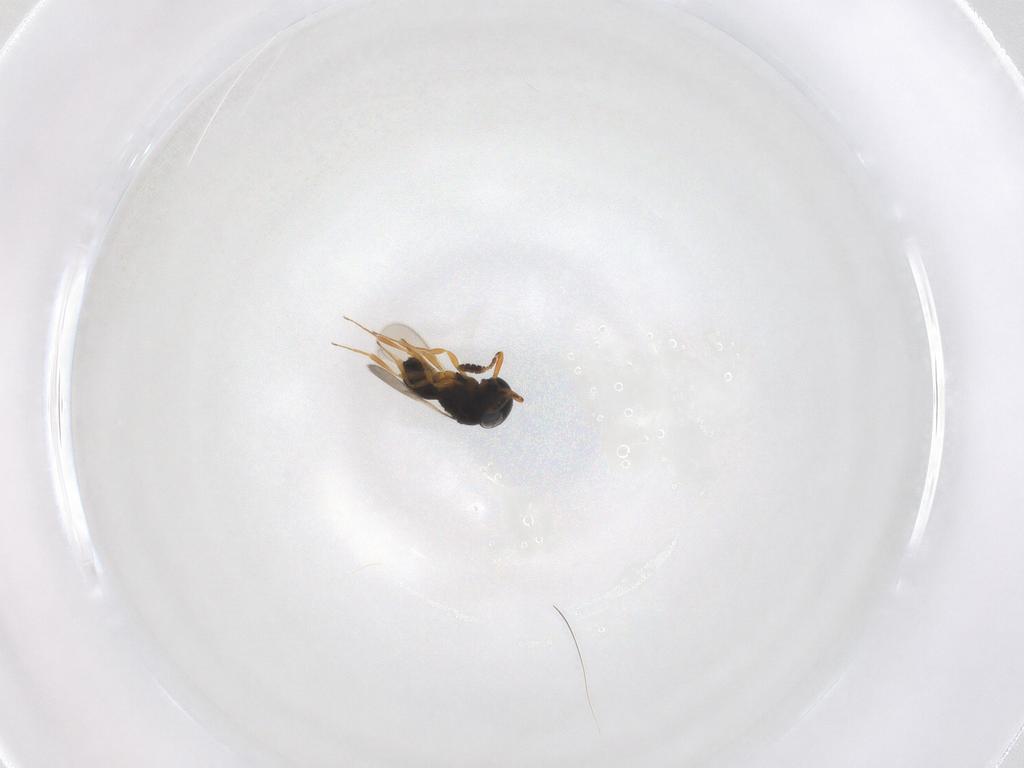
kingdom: Animalia
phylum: Arthropoda
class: Insecta
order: Hymenoptera
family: Scelionidae
